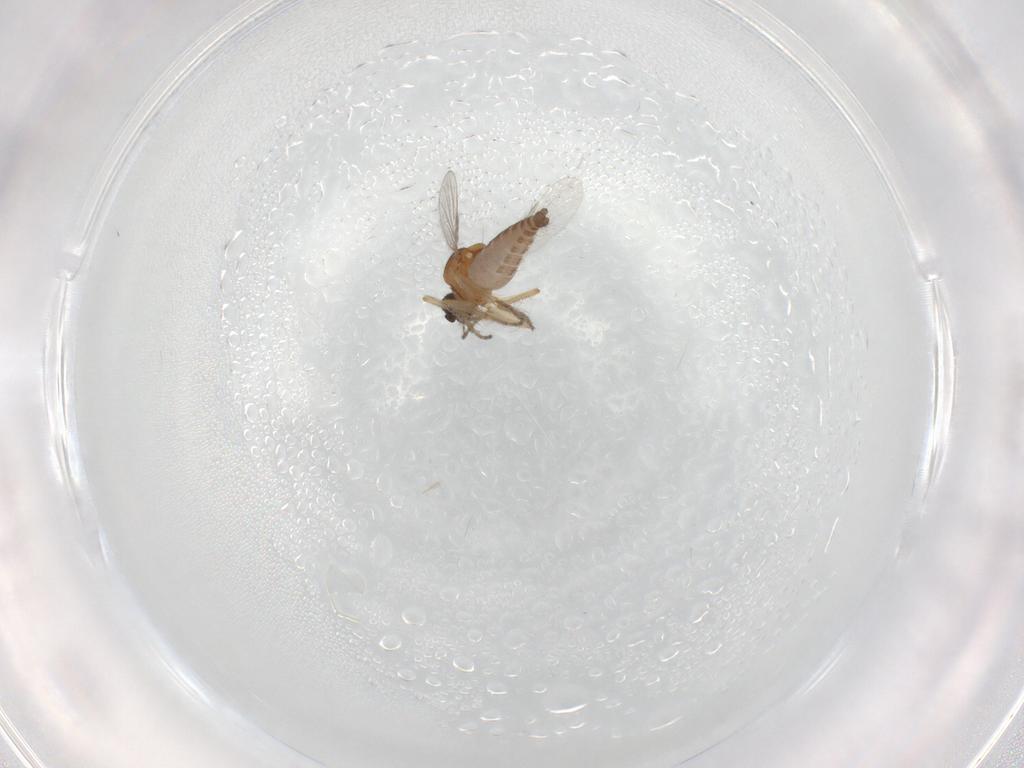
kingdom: Animalia
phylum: Arthropoda
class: Insecta
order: Diptera
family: Ceratopogonidae
